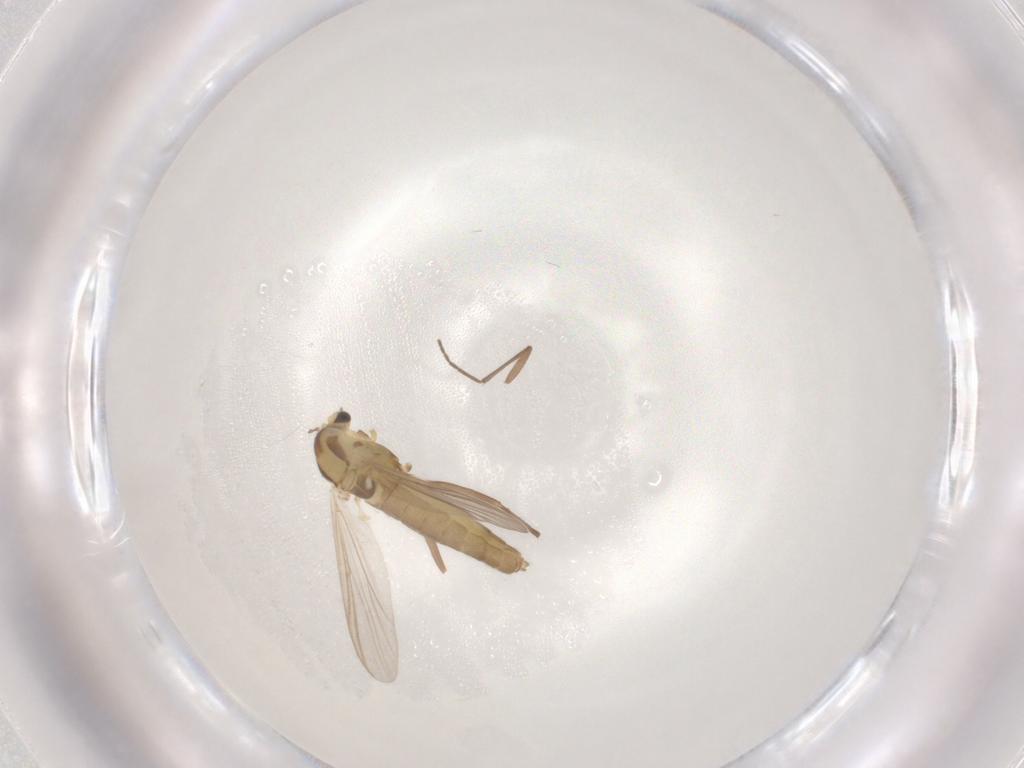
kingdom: Animalia
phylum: Arthropoda
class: Insecta
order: Diptera
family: Chironomidae
